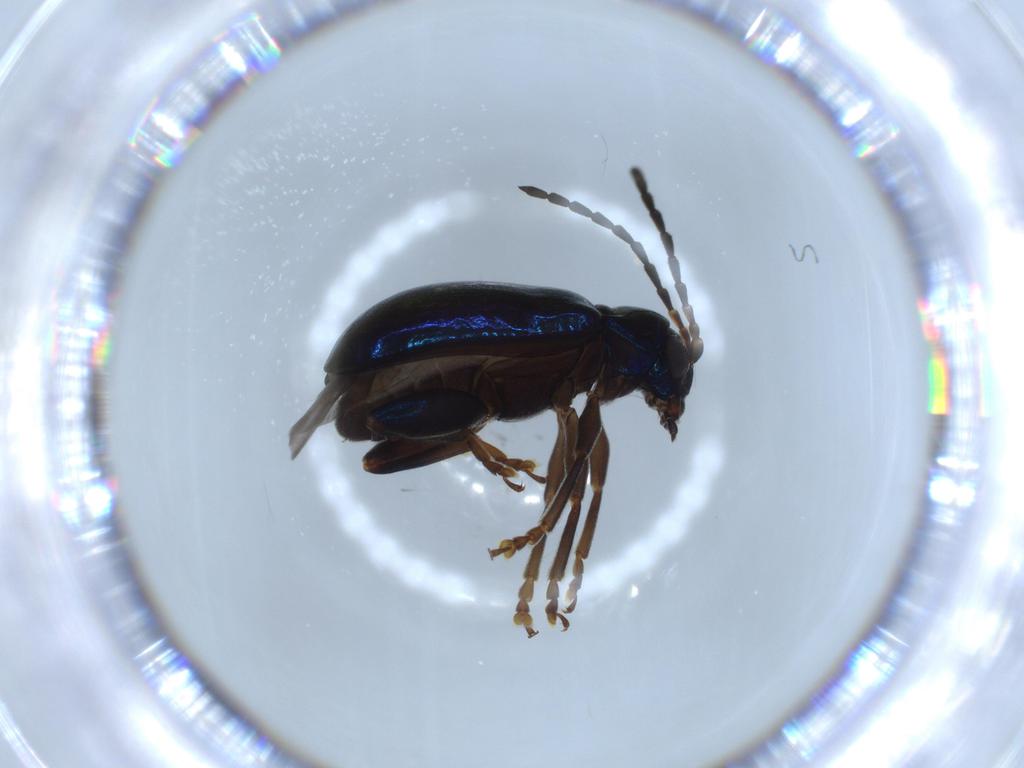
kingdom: Animalia
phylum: Arthropoda
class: Insecta
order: Coleoptera
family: Chrysomelidae
